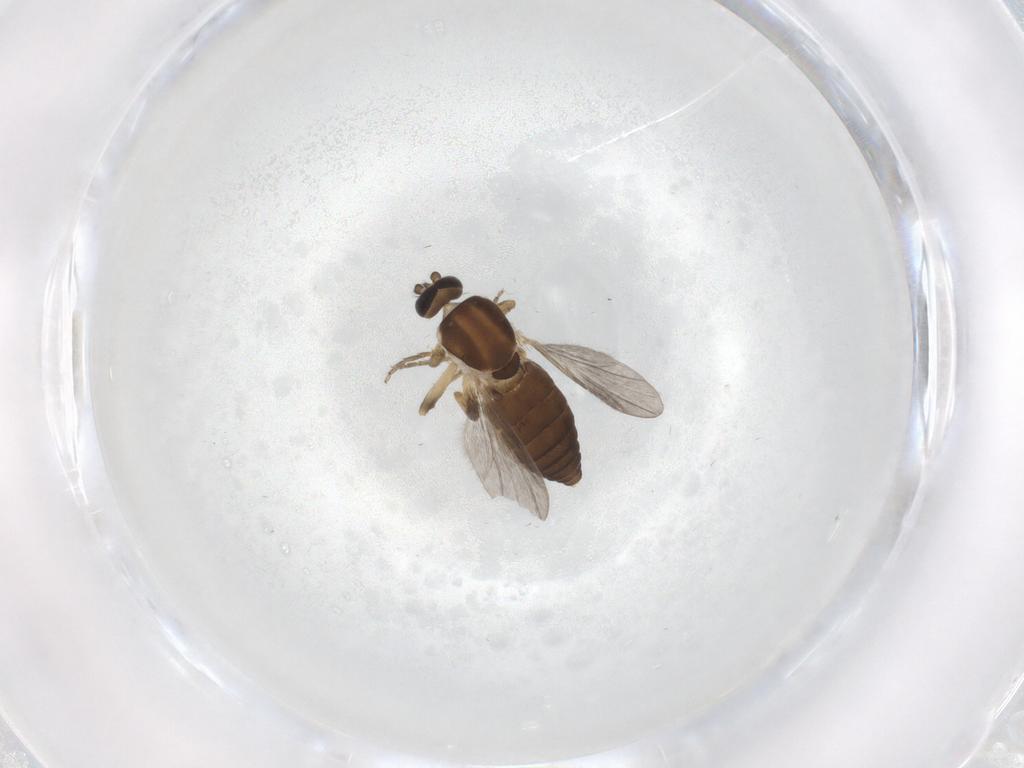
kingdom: Animalia
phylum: Arthropoda
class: Insecta
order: Diptera
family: Ceratopogonidae
